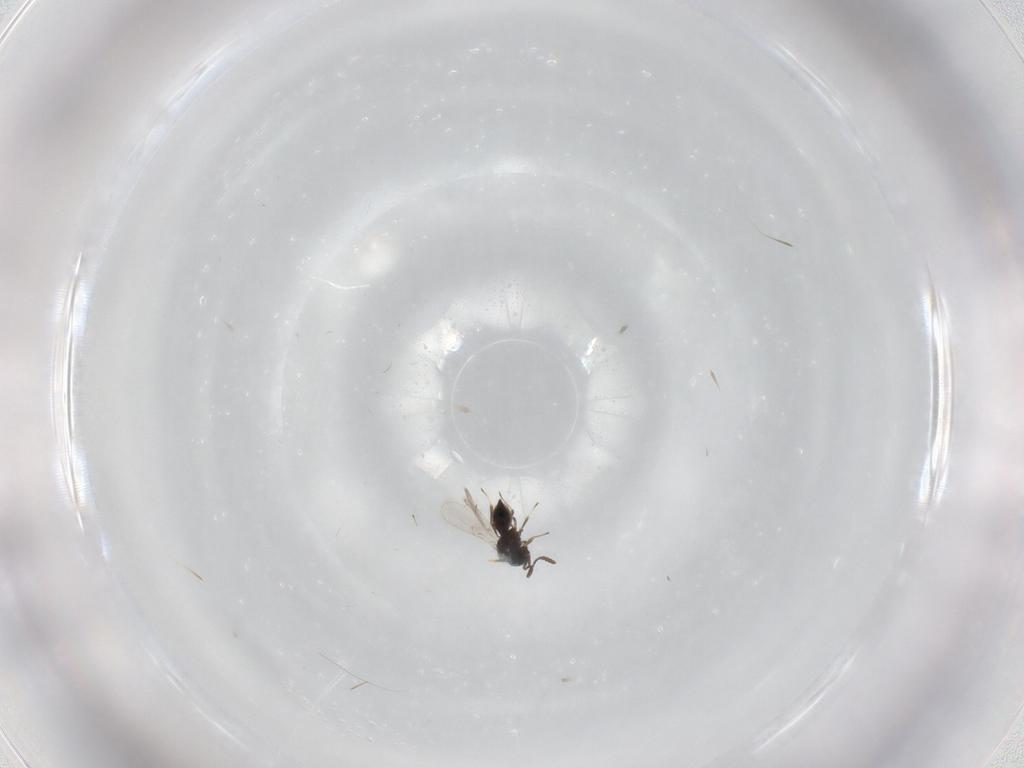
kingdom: Animalia
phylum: Arthropoda
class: Insecta
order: Hymenoptera
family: Scelionidae
